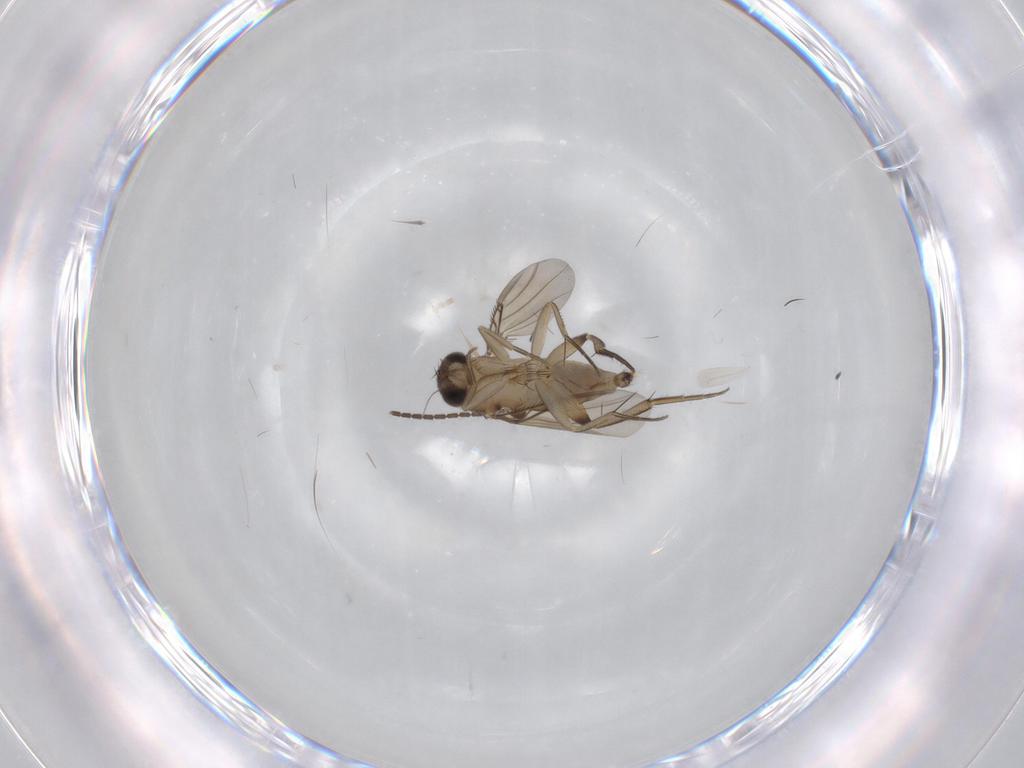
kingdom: Animalia
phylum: Arthropoda
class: Insecta
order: Diptera
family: Phoridae
